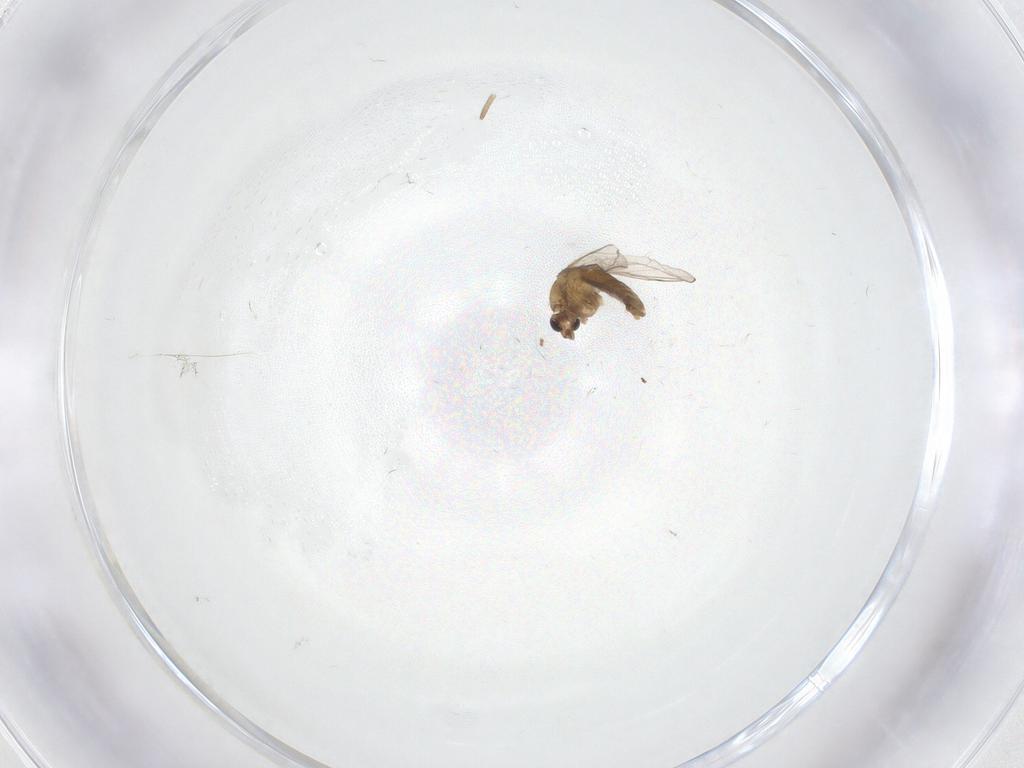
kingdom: Animalia
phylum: Arthropoda
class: Insecta
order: Diptera
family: Chironomidae
